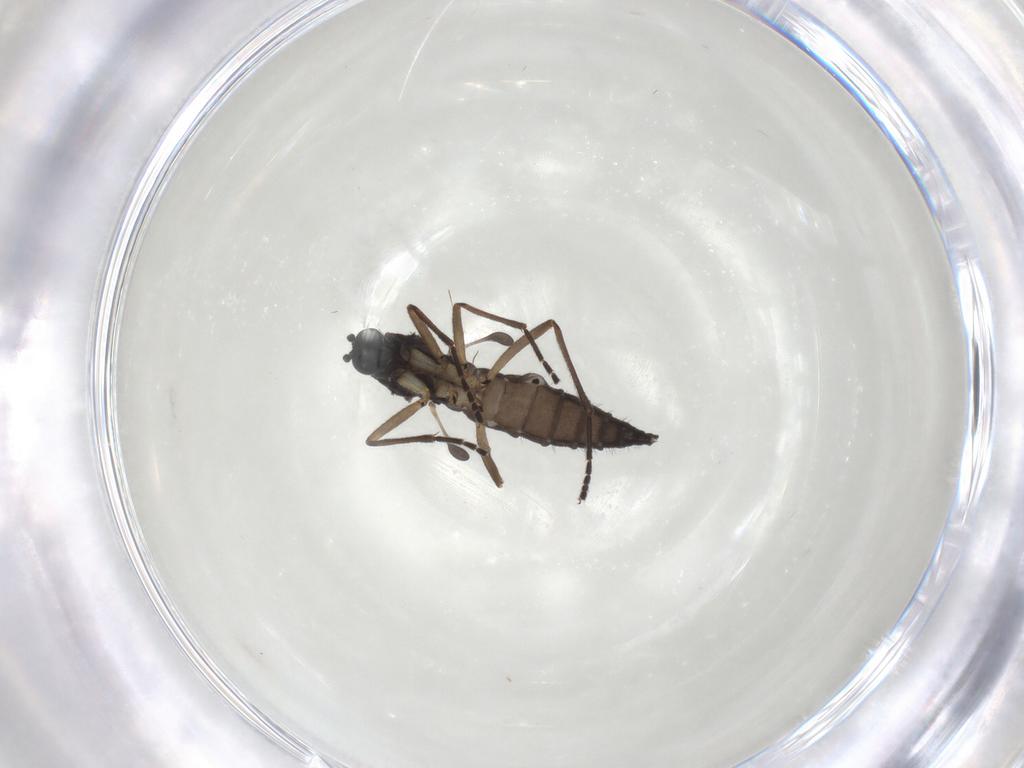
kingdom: Animalia
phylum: Arthropoda
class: Insecta
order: Diptera
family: Sciaridae
